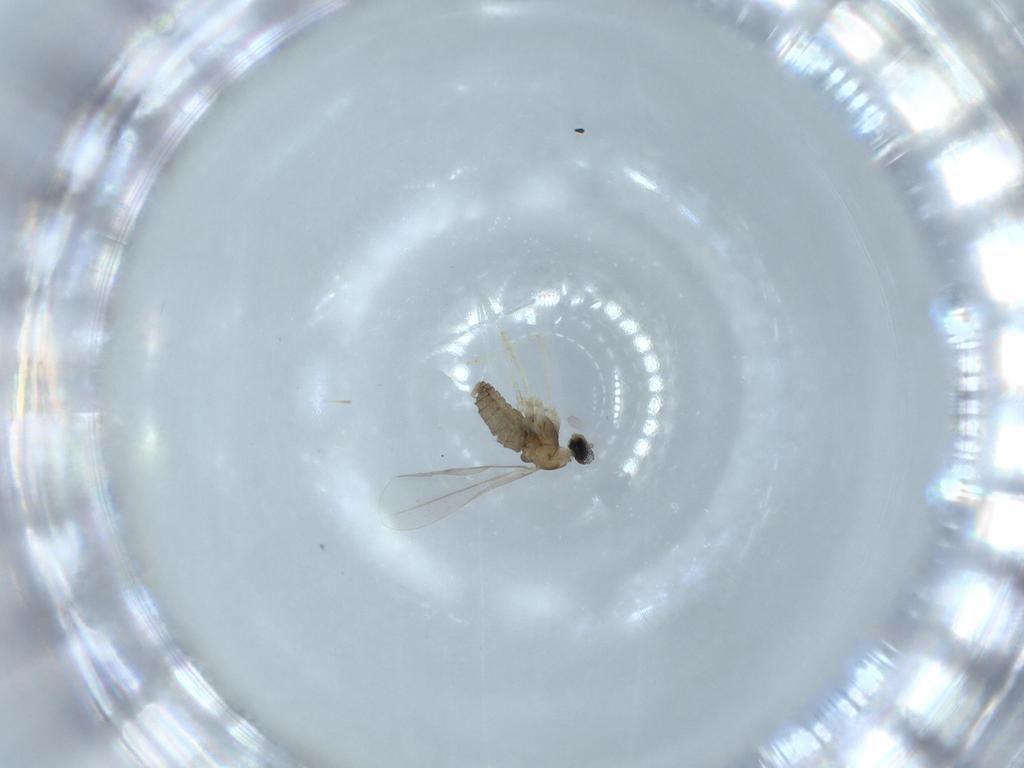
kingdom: Animalia
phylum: Arthropoda
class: Insecta
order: Diptera
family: Cecidomyiidae
